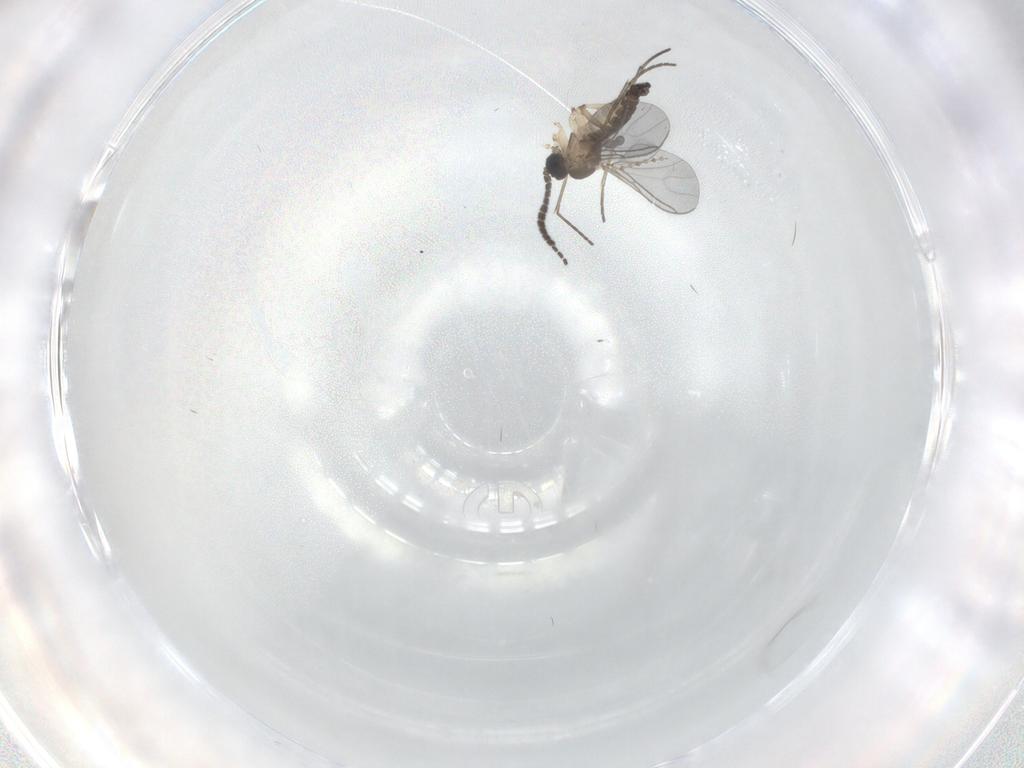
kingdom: Animalia
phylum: Arthropoda
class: Insecta
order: Diptera
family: Sciaridae
